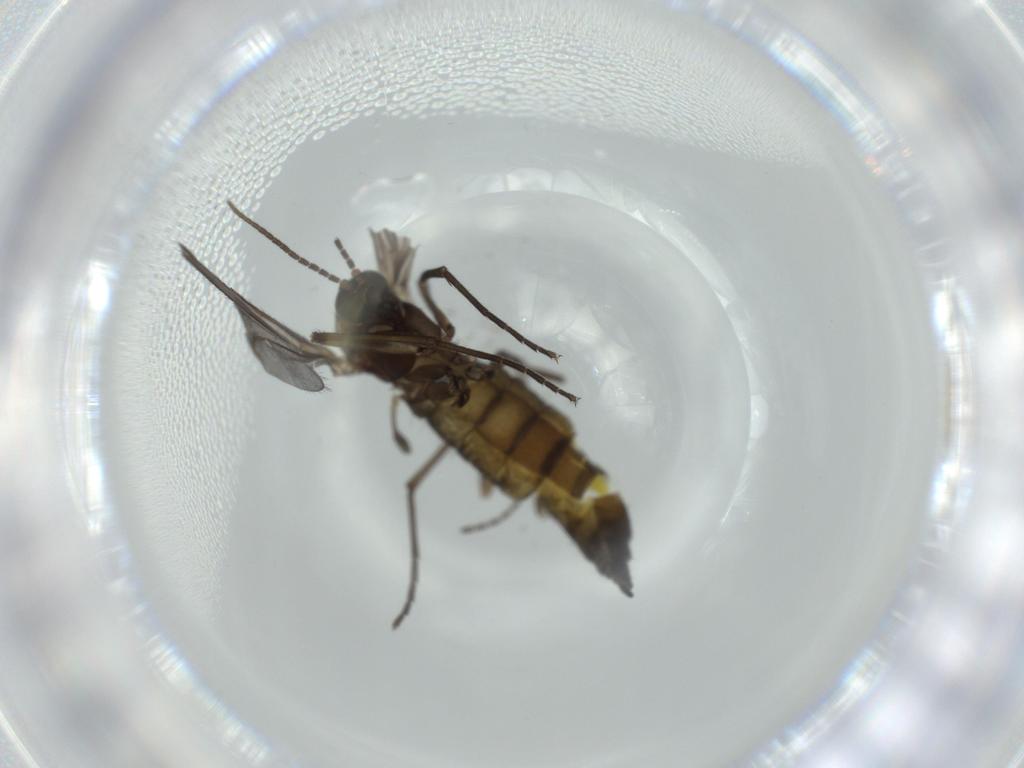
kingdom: Animalia
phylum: Arthropoda
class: Insecta
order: Diptera
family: Sciaridae
